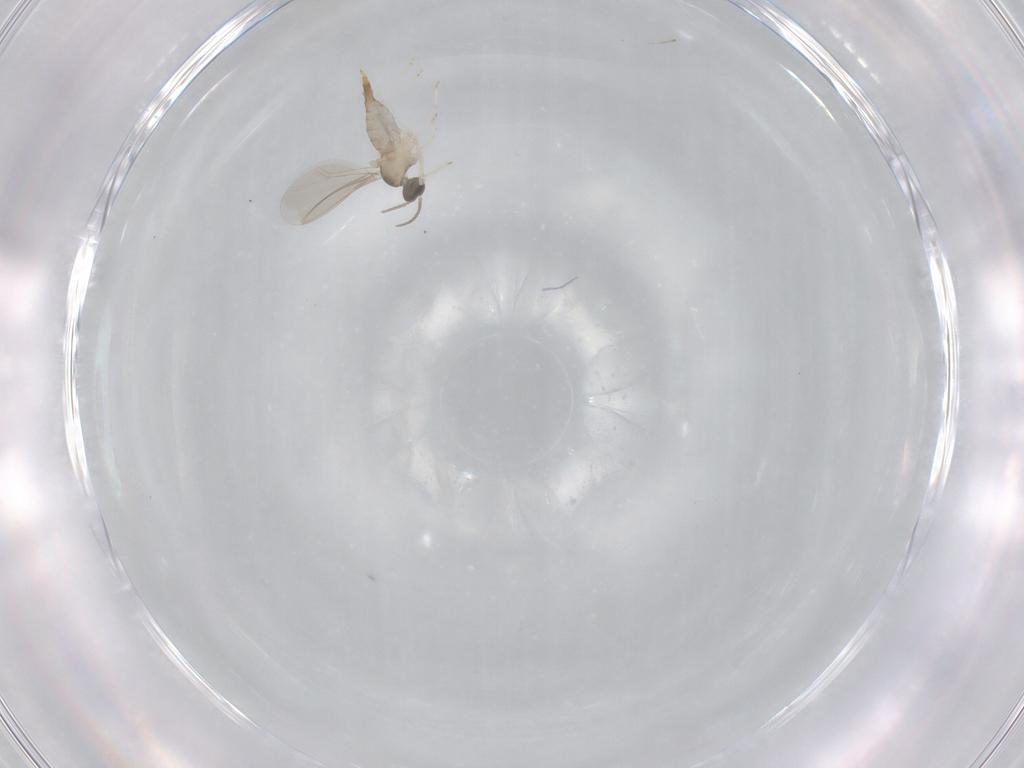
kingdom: Animalia
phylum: Arthropoda
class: Insecta
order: Diptera
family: Cecidomyiidae
